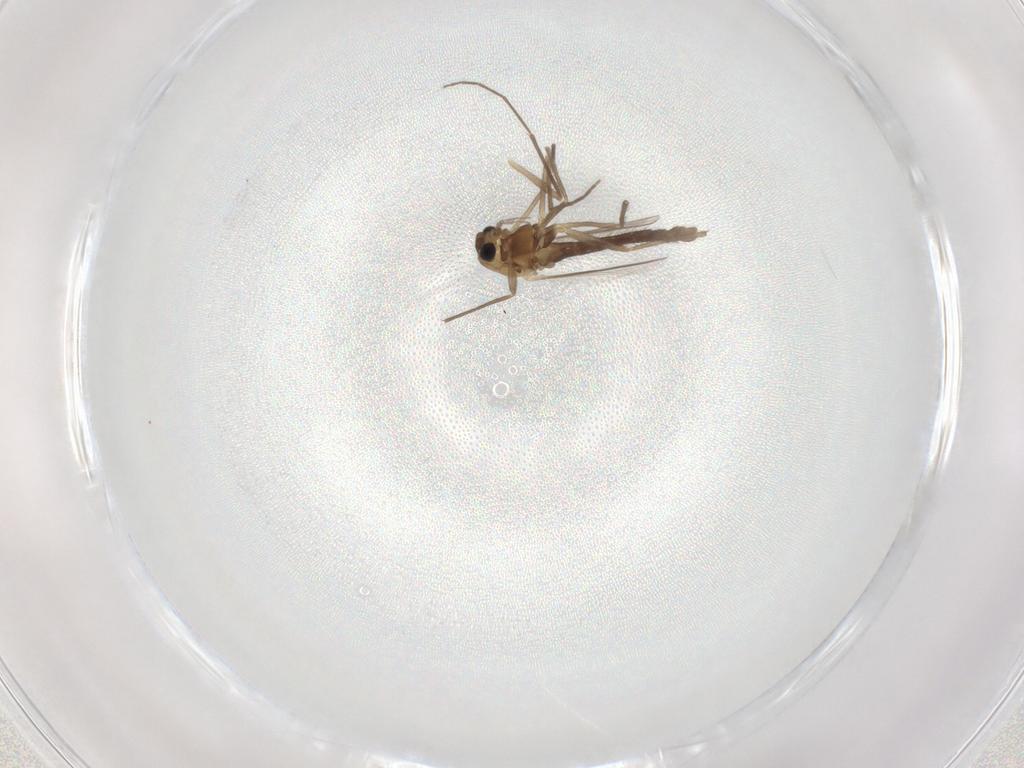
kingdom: Animalia
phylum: Arthropoda
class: Insecta
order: Diptera
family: Chironomidae
